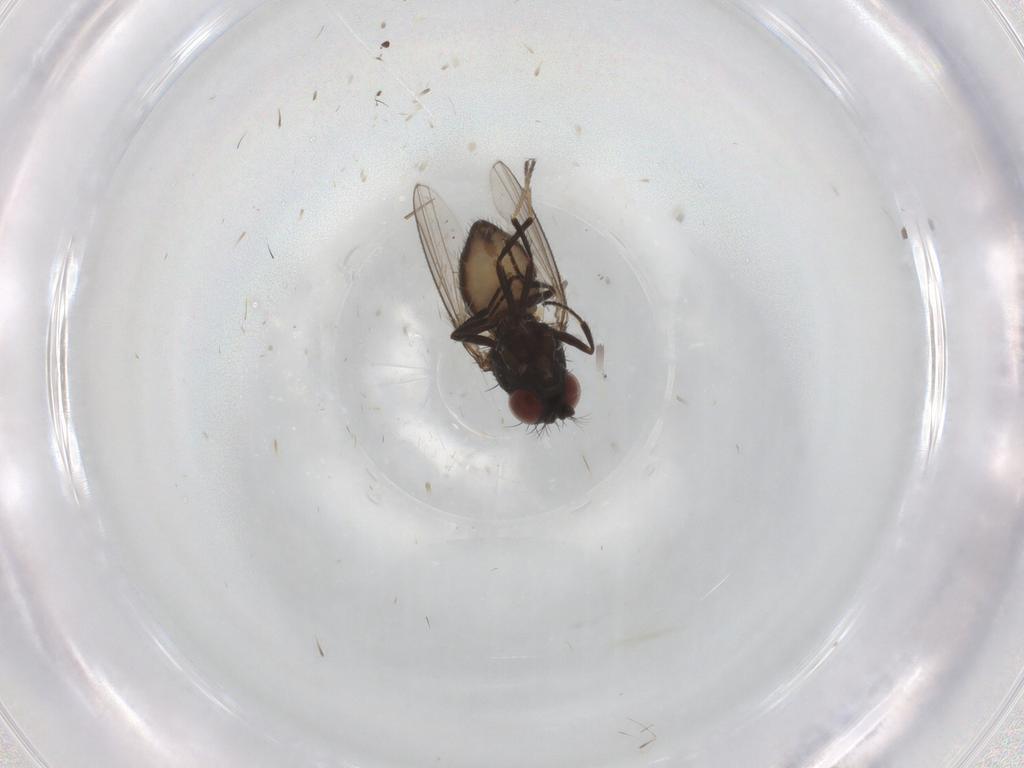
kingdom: Animalia
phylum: Arthropoda
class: Insecta
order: Diptera
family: Ephydridae
